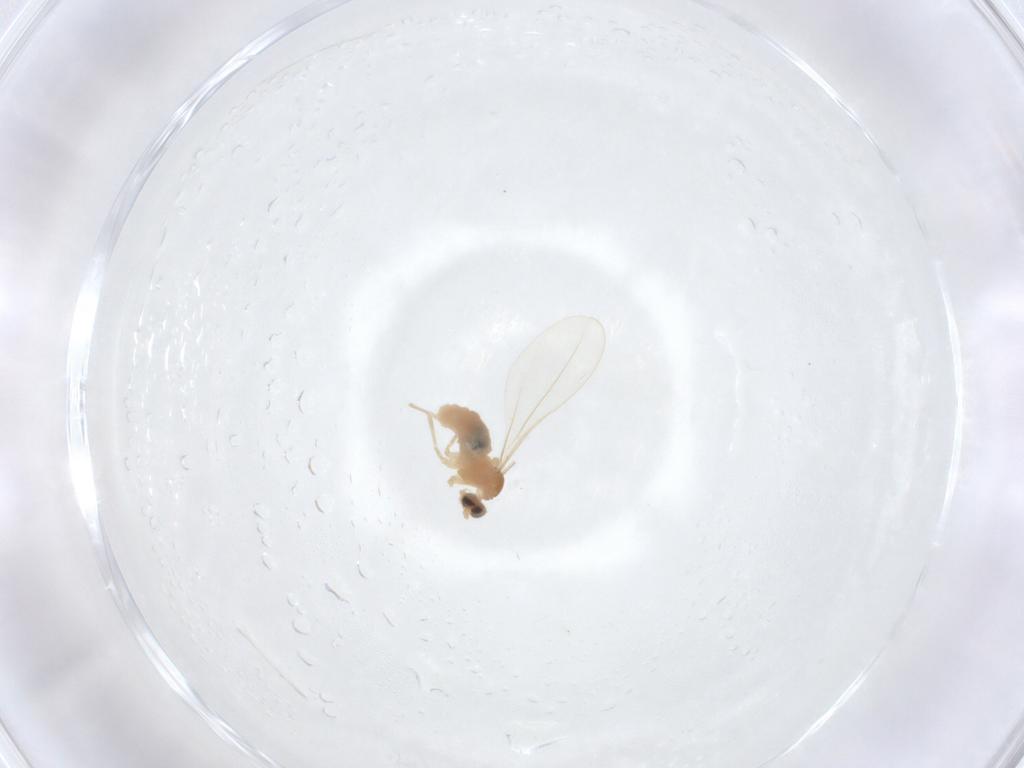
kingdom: Animalia
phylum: Arthropoda
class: Insecta
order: Diptera
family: Cecidomyiidae
